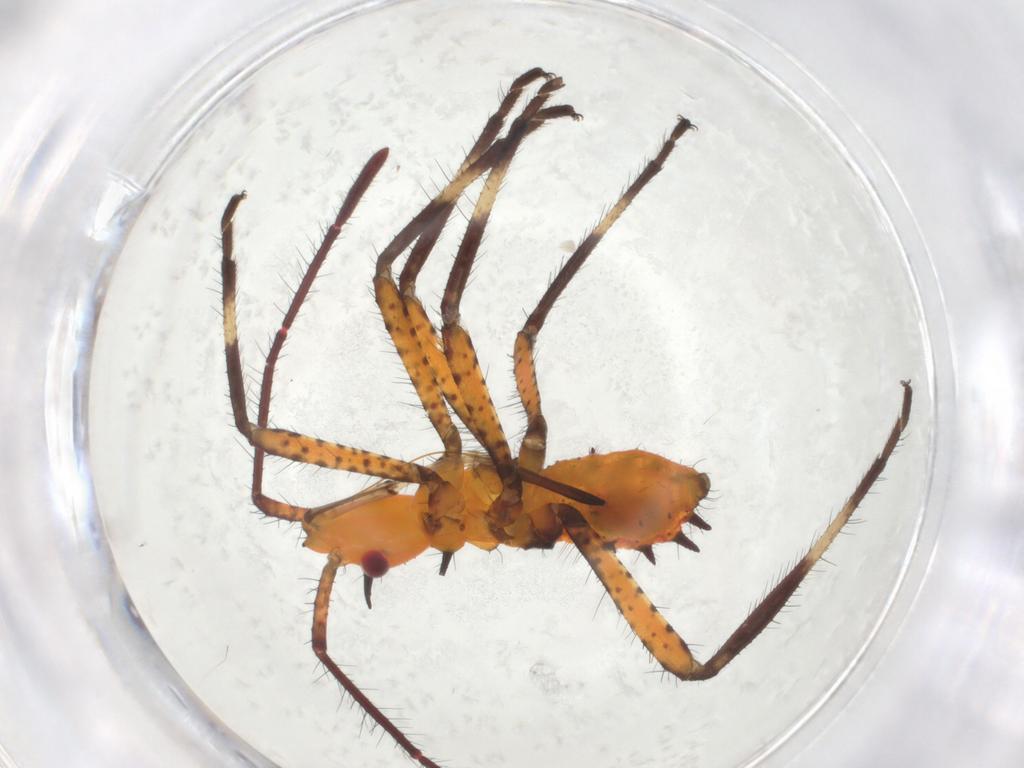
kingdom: Animalia
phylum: Arthropoda
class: Insecta
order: Hemiptera
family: Coreidae
